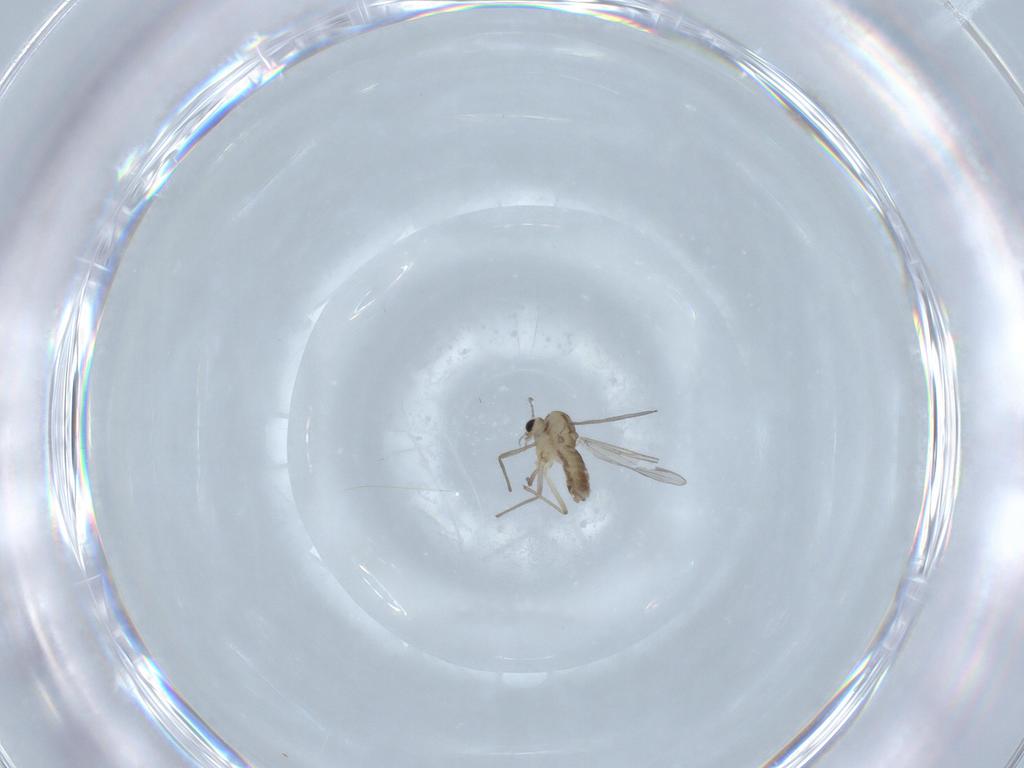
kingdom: Animalia
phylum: Arthropoda
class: Insecta
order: Diptera
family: Chironomidae
